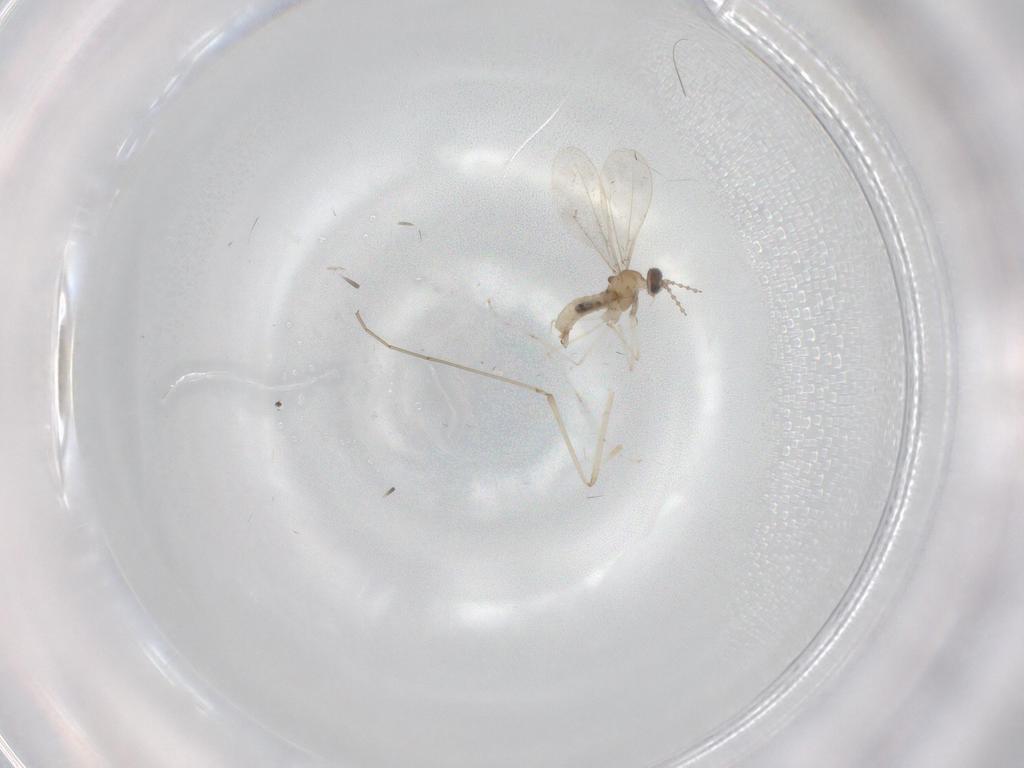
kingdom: Animalia
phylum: Arthropoda
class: Insecta
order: Diptera
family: Cecidomyiidae
